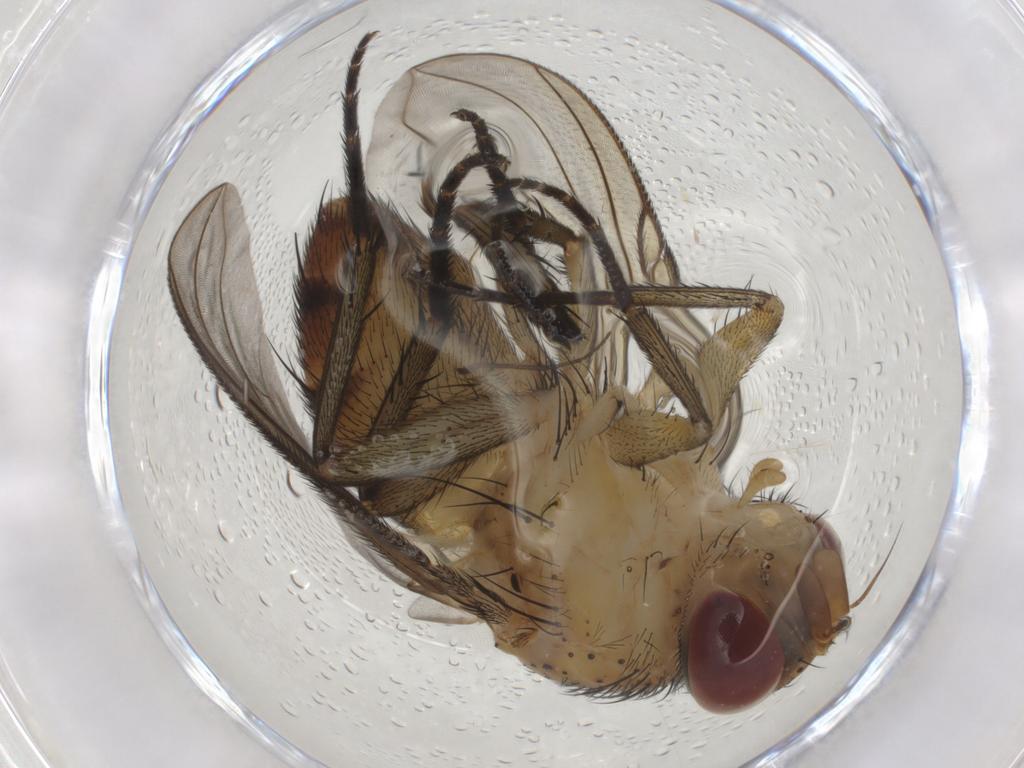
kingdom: Animalia
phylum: Arthropoda
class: Insecta
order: Diptera
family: Tachinidae
